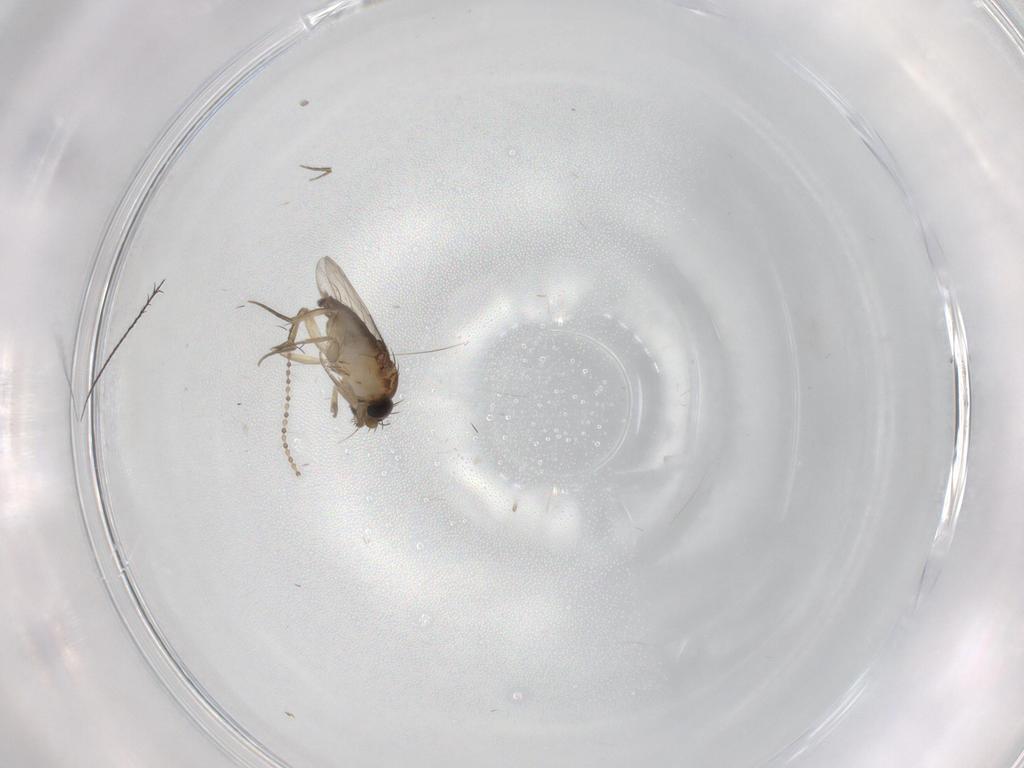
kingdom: Animalia
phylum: Arthropoda
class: Insecta
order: Diptera
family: Phoridae
